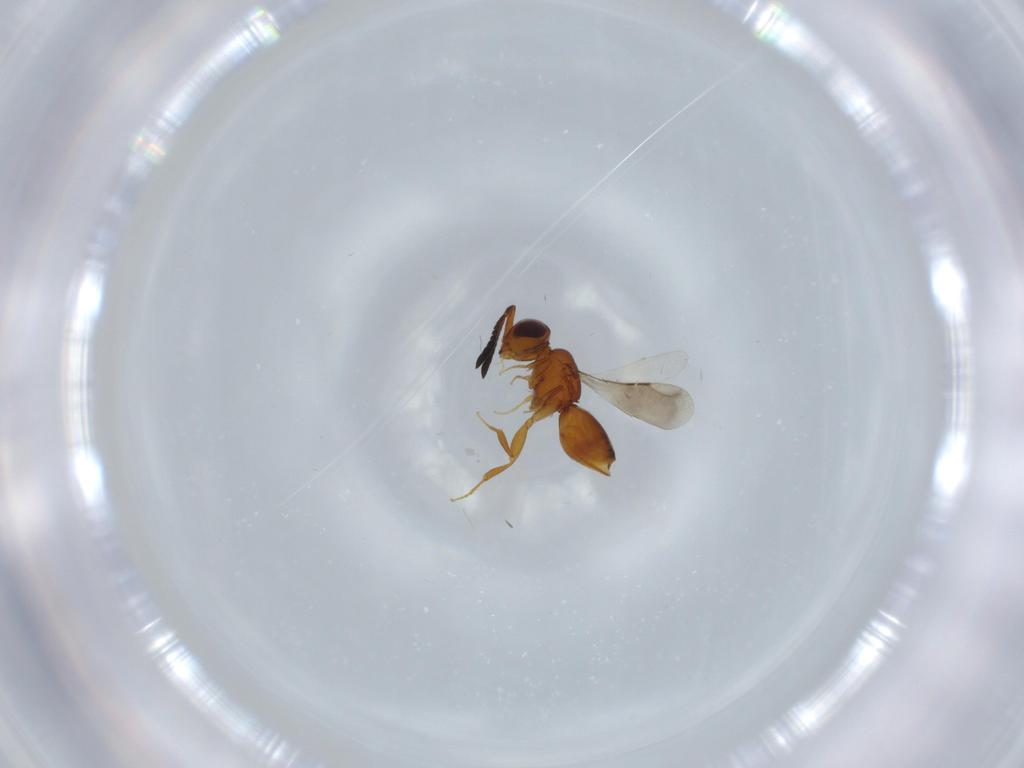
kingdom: Animalia
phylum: Arthropoda
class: Insecta
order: Hymenoptera
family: Ceraphronidae
